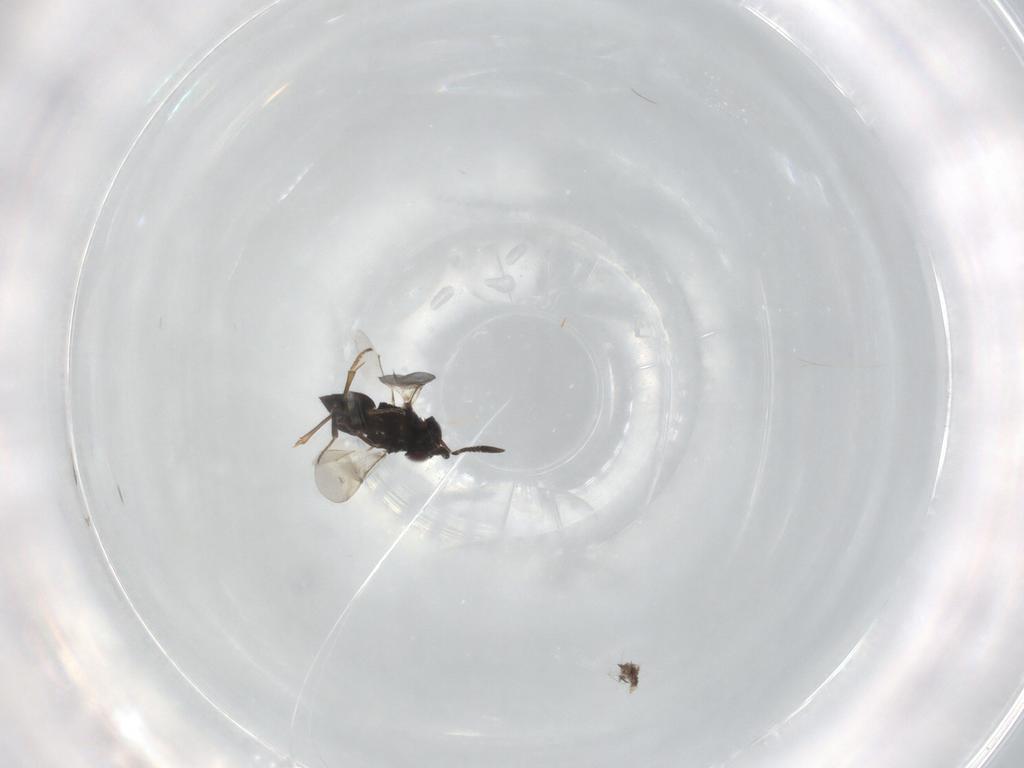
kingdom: Animalia
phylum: Arthropoda
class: Insecta
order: Hymenoptera
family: Encyrtidae
